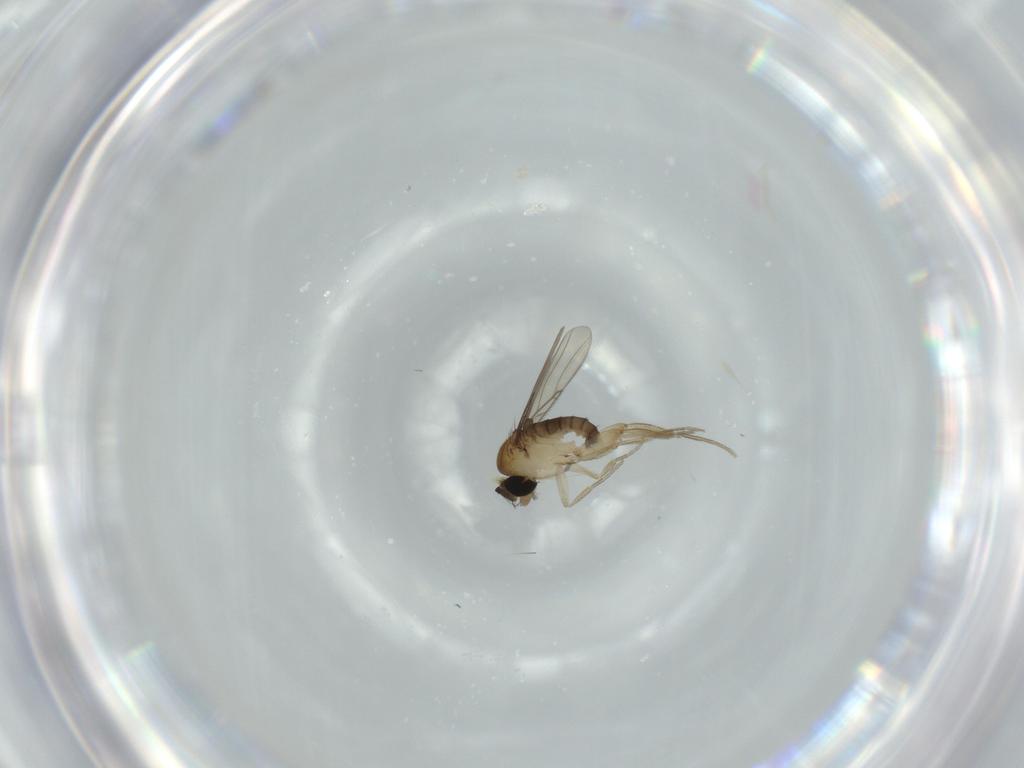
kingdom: Animalia
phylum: Arthropoda
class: Insecta
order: Diptera
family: Phoridae
